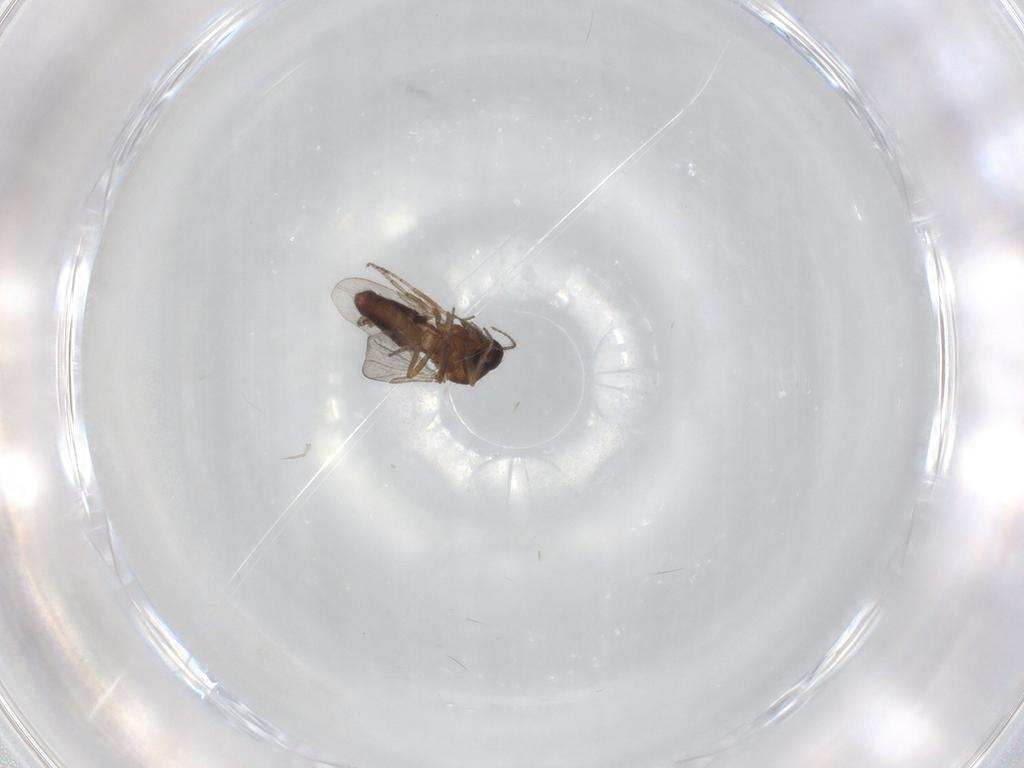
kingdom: Animalia
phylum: Arthropoda
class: Insecta
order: Diptera
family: Ceratopogonidae
